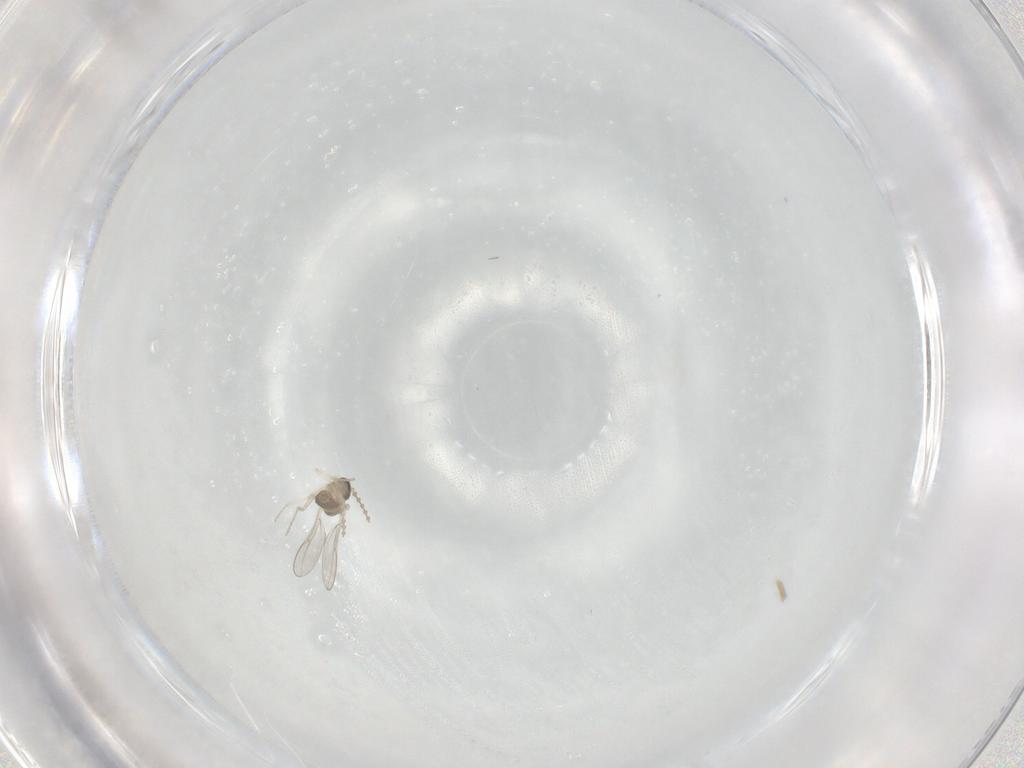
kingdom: Animalia
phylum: Arthropoda
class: Insecta
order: Diptera
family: Cecidomyiidae
